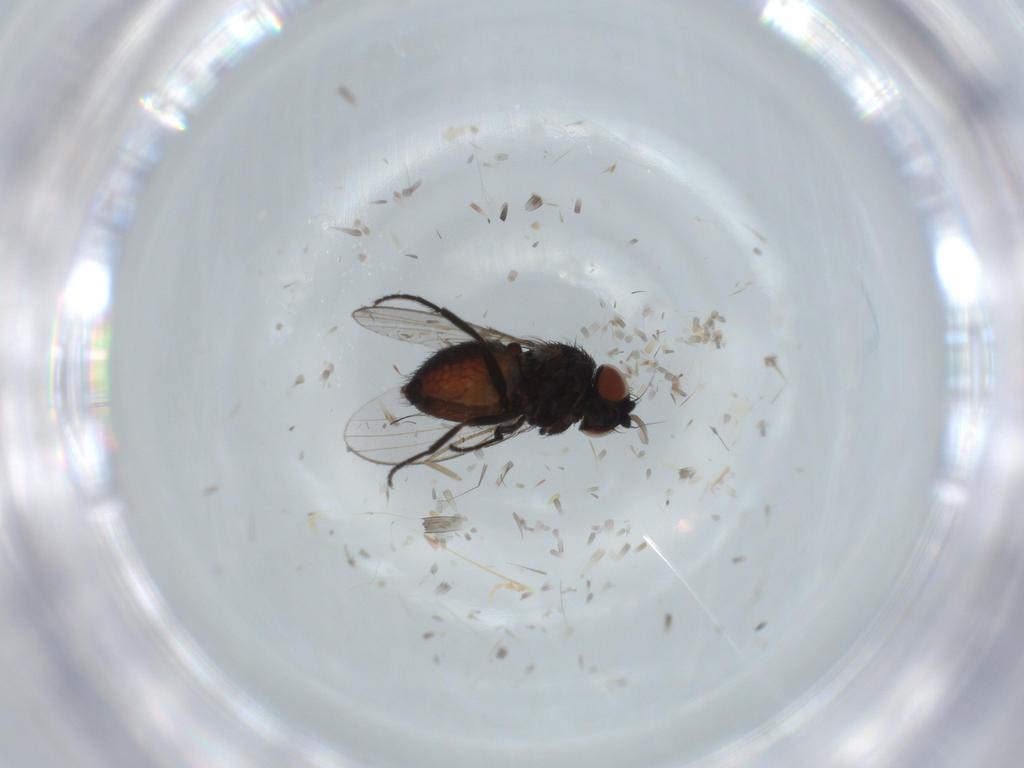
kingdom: Animalia
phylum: Arthropoda
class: Insecta
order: Diptera
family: Milichiidae
